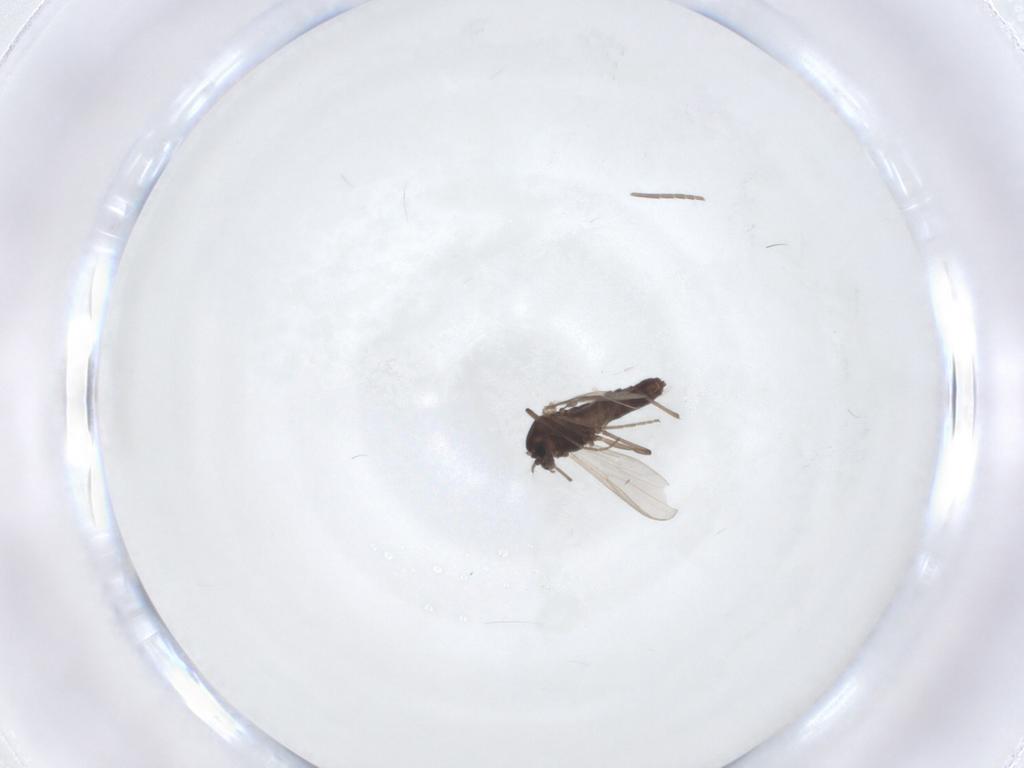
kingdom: Animalia
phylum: Arthropoda
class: Insecta
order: Diptera
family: Chironomidae
